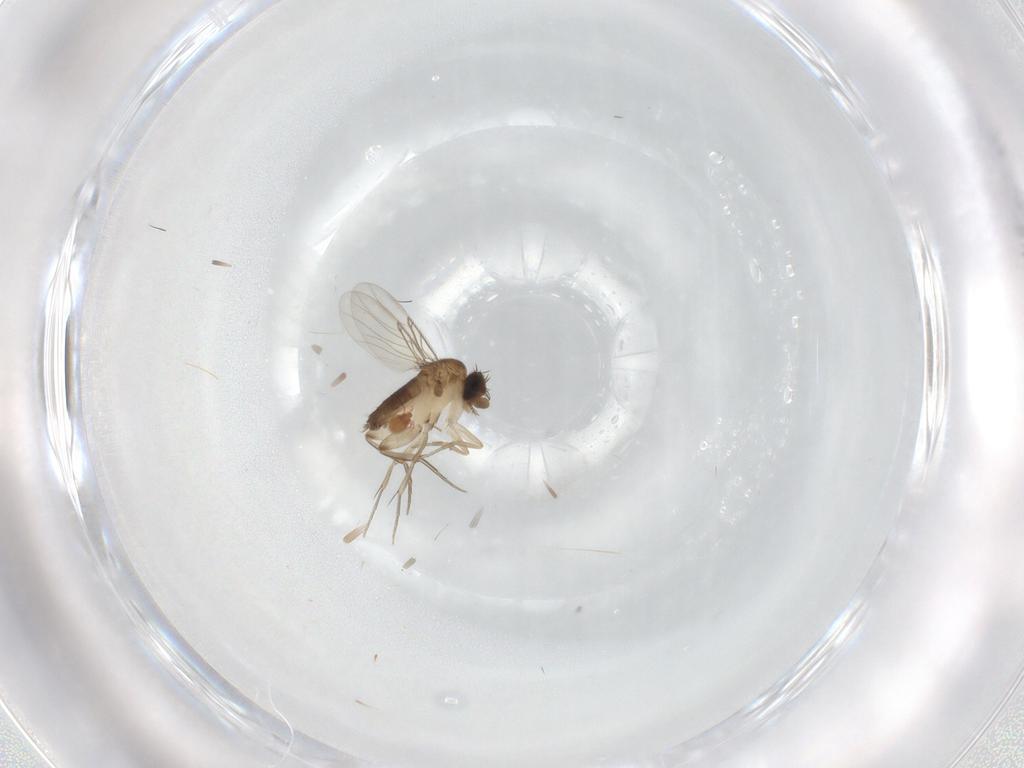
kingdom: Animalia
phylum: Arthropoda
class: Insecta
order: Diptera
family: Phoridae
